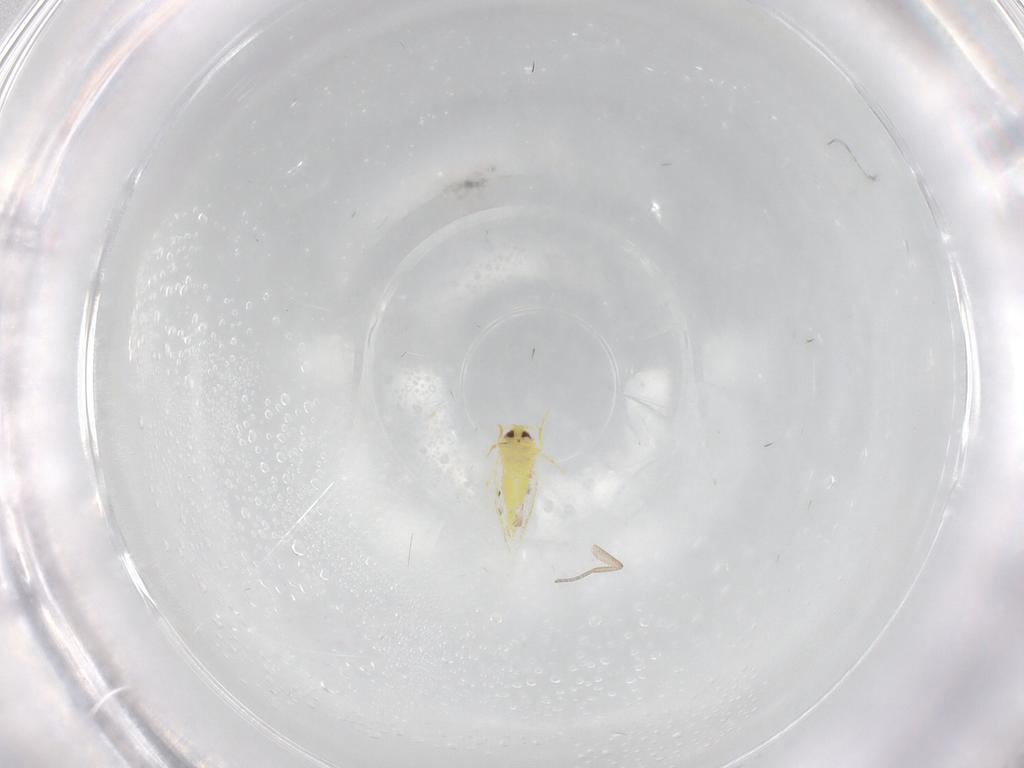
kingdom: Animalia
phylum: Arthropoda
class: Insecta
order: Hemiptera
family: Aleyrodidae
